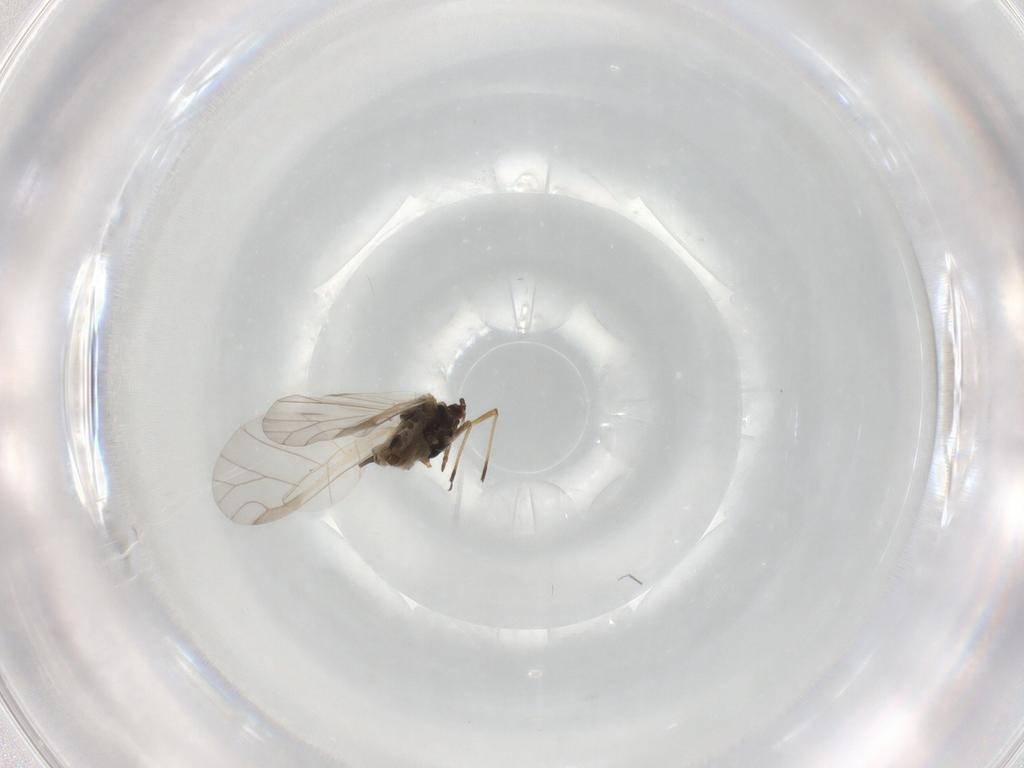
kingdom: Animalia
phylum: Arthropoda
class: Insecta
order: Hemiptera
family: Aphididae
